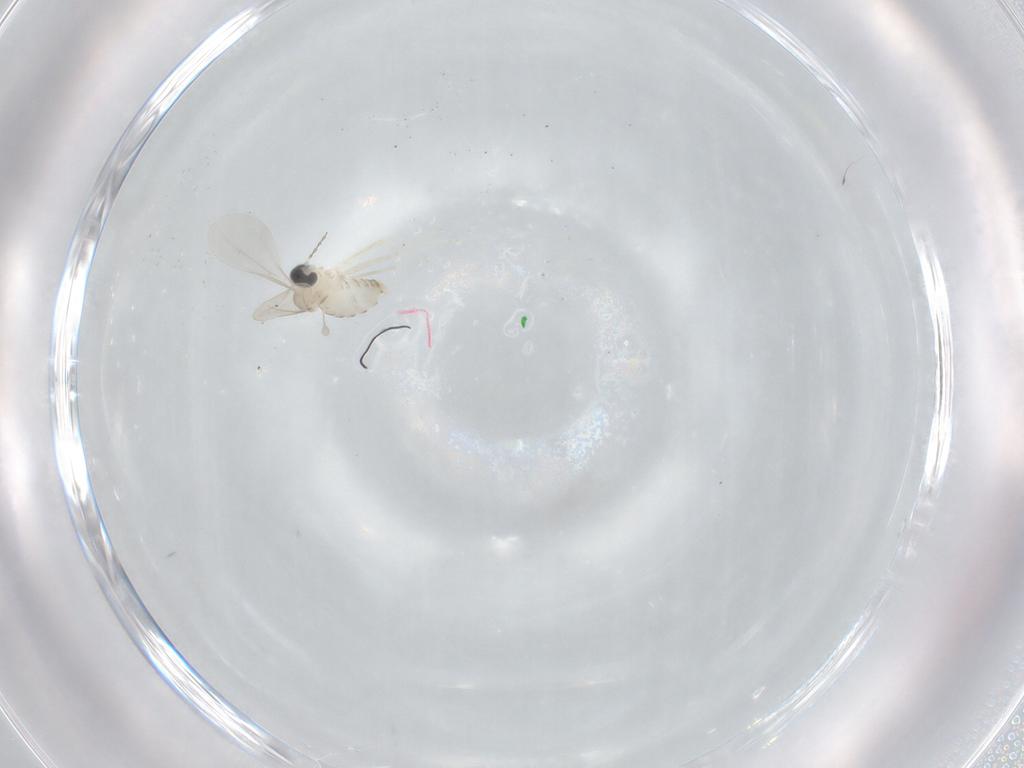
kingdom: Animalia
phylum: Arthropoda
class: Insecta
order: Diptera
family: Cecidomyiidae
